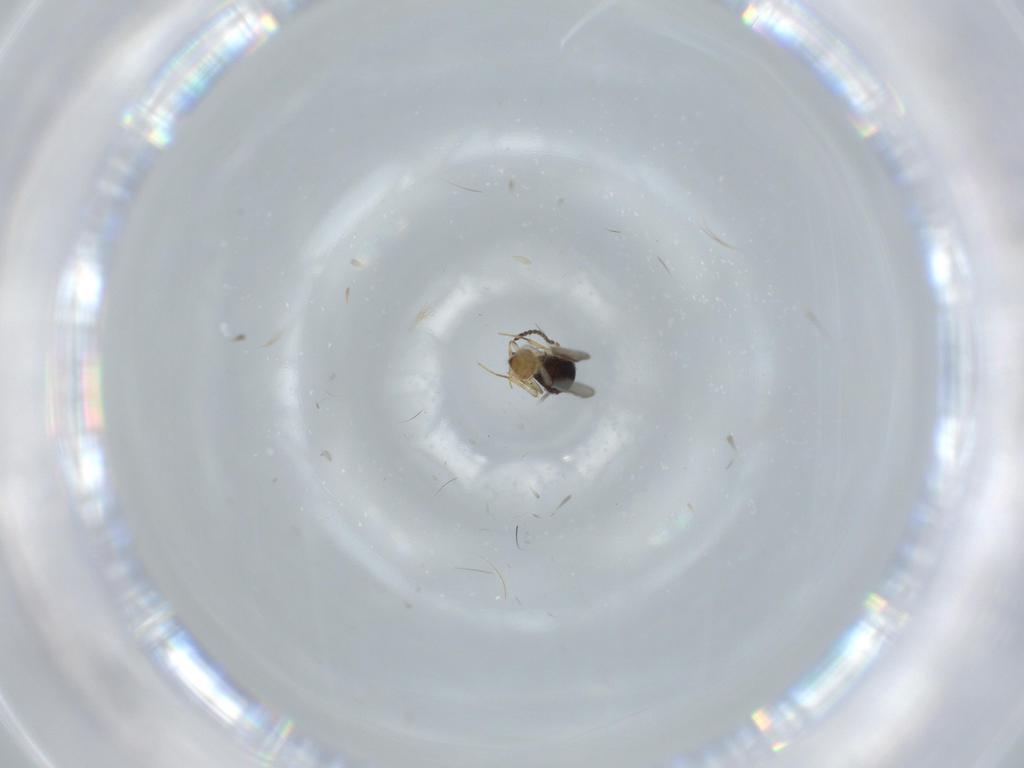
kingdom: Animalia
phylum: Arthropoda
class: Insecta
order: Hymenoptera
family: Scelionidae
